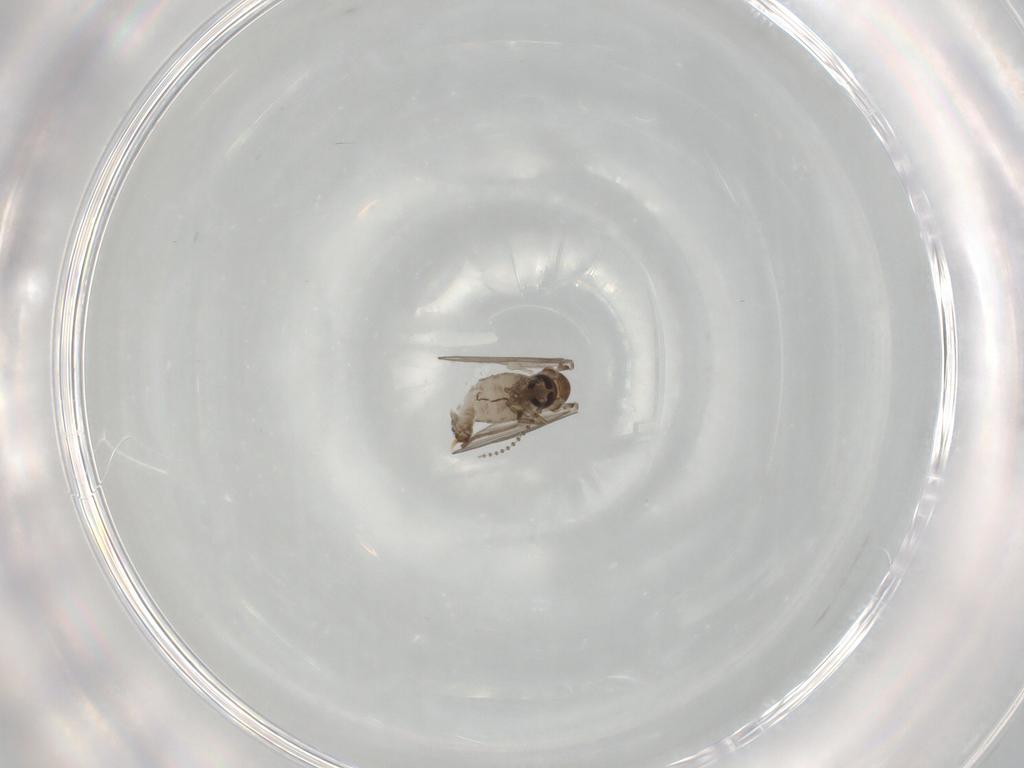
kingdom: Animalia
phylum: Arthropoda
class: Insecta
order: Diptera
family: Psychodidae
